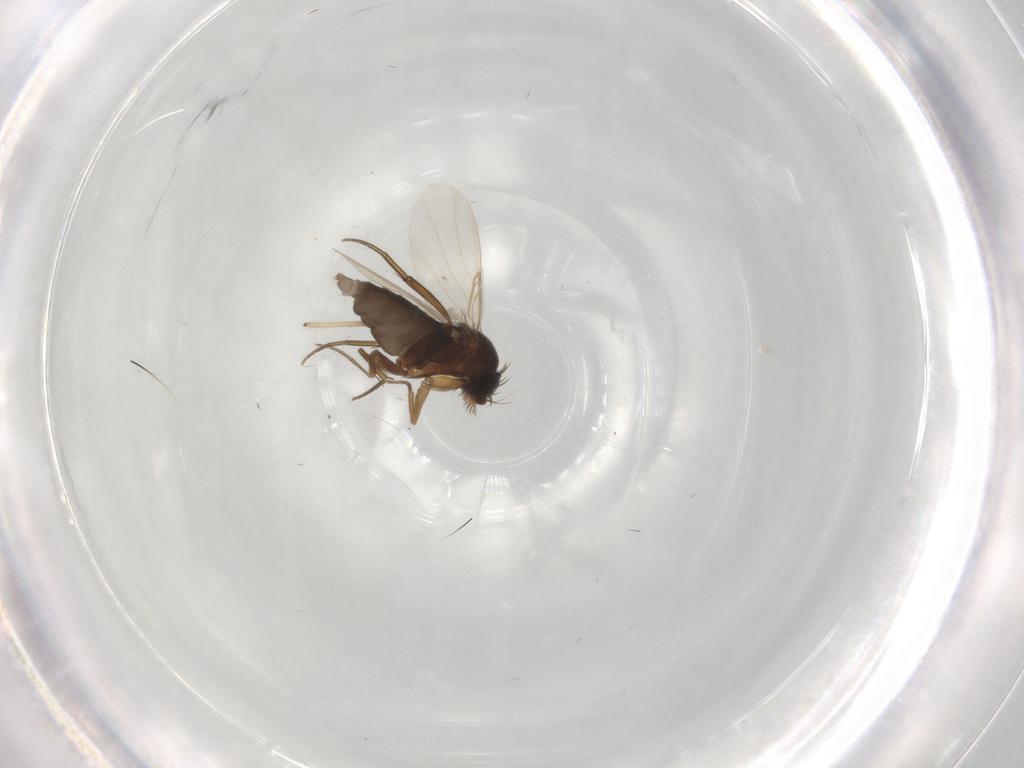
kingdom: Animalia
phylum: Arthropoda
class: Insecta
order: Diptera
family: Phoridae
